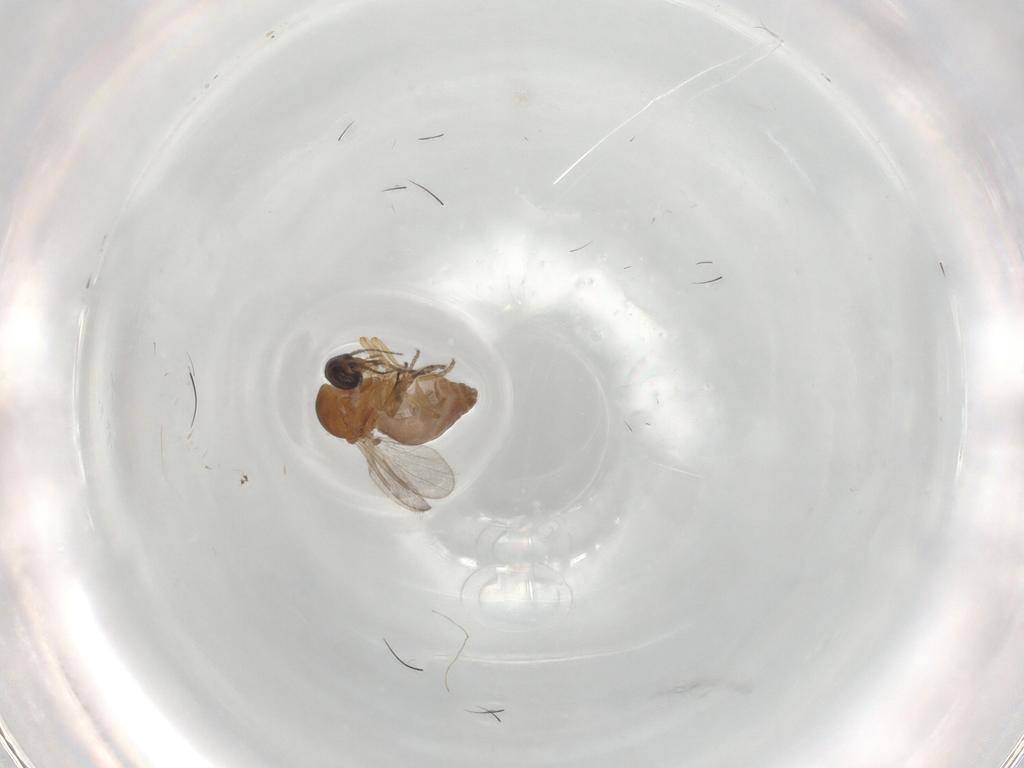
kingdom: Animalia
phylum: Arthropoda
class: Insecta
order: Diptera
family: Ceratopogonidae
